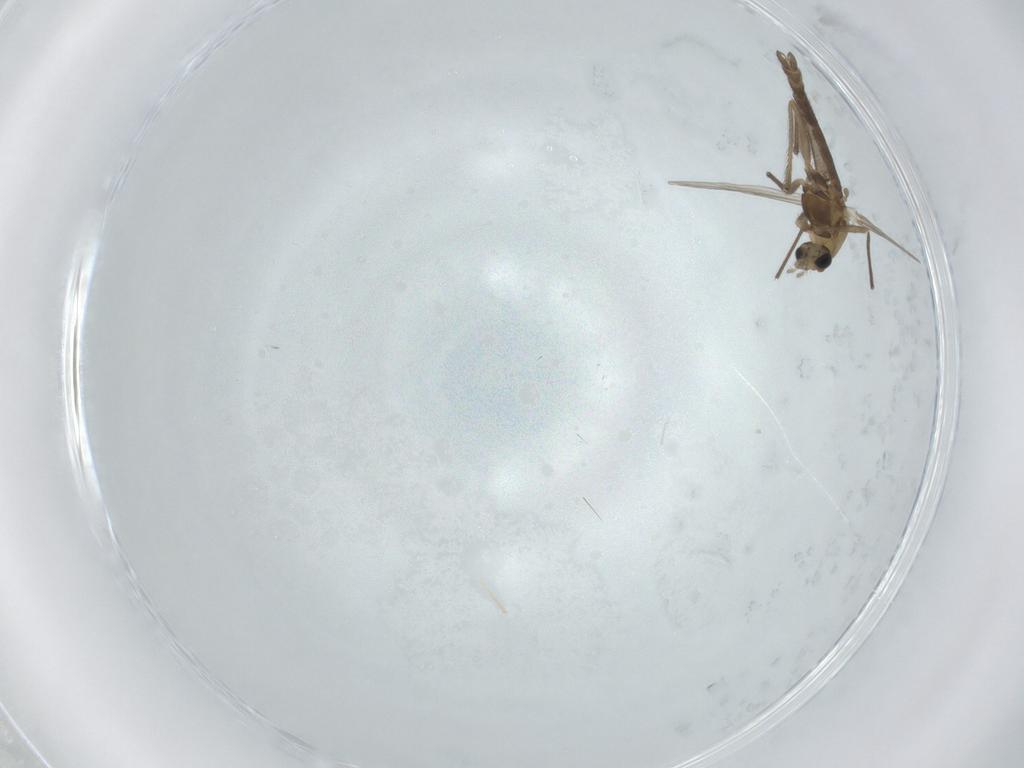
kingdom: Animalia
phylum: Arthropoda
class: Insecta
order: Diptera
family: Chironomidae
